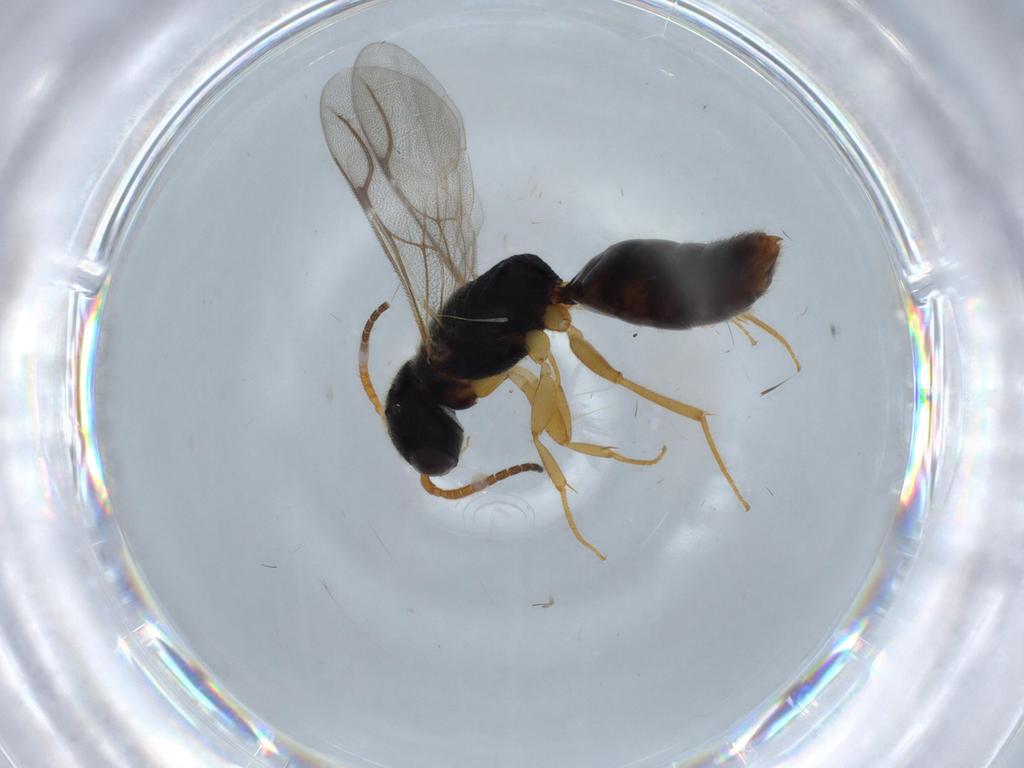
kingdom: Animalia
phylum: Arthropoda
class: Insecta
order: Hymenoptera
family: Bethylidae
